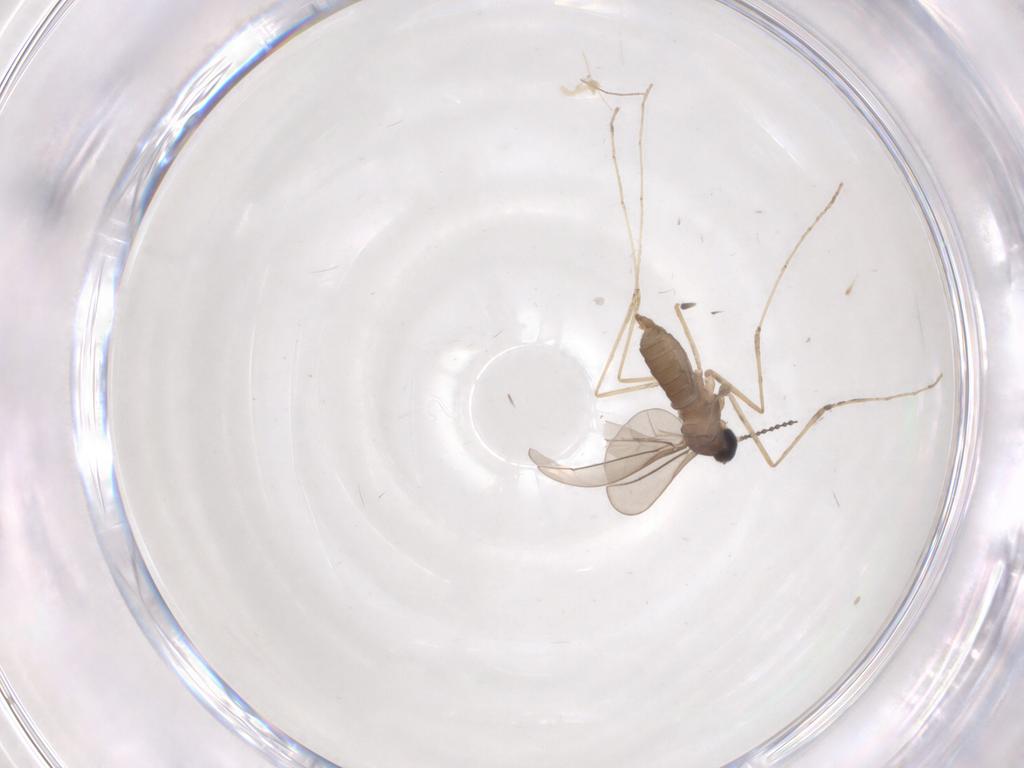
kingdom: Animalia
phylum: Arthropoda
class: Insecta
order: Diptera
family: Cecidomyiidae
